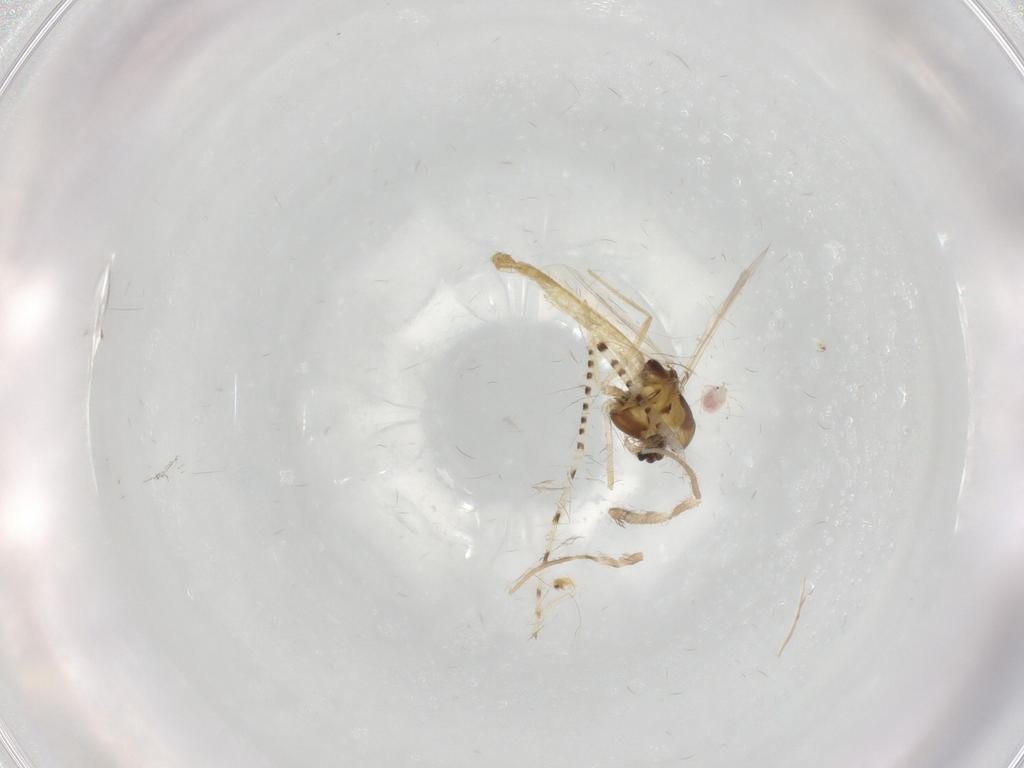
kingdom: Animalia
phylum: Arthropoda
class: Insecta
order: Diptera
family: Chironomidae
